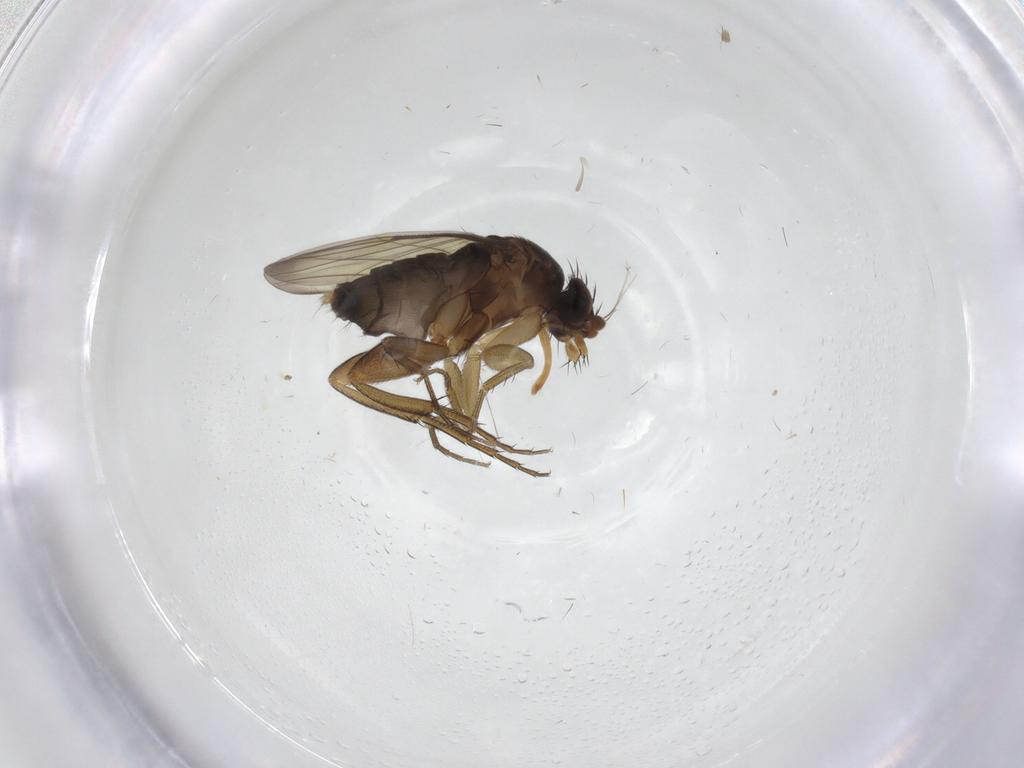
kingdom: Animalia
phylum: Arthropoda
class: Insecta
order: Diptera
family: Phoridae
